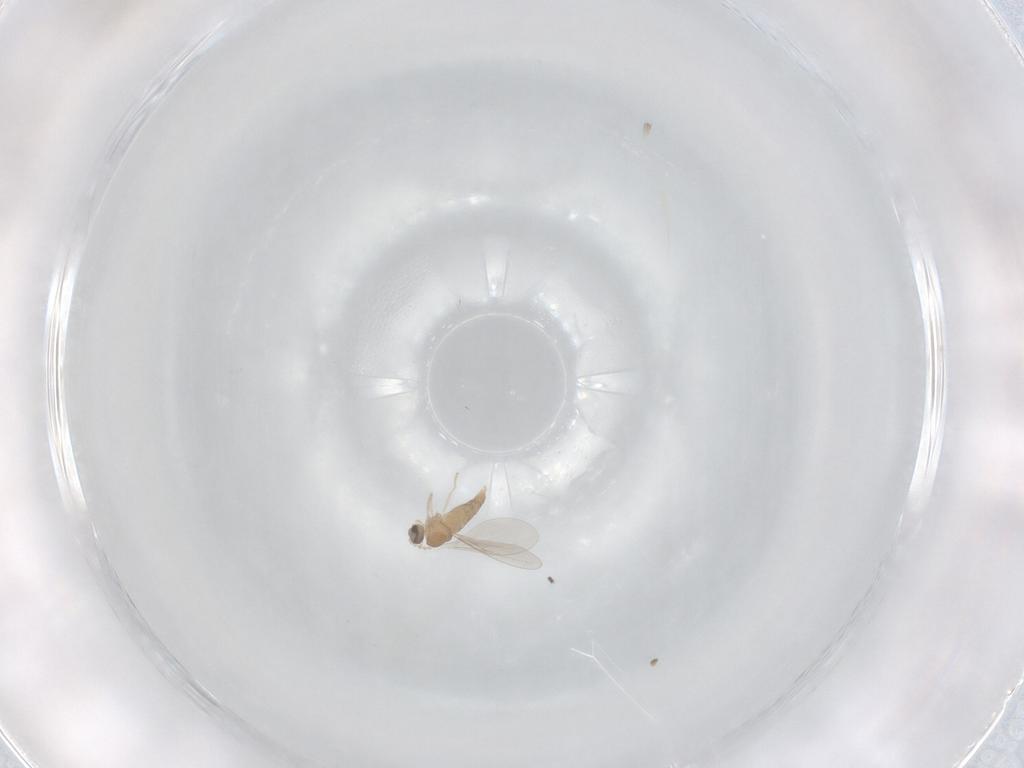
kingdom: Animalia
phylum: Arthropoda
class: Insecta
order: Diptera
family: Cecidomyiidae
